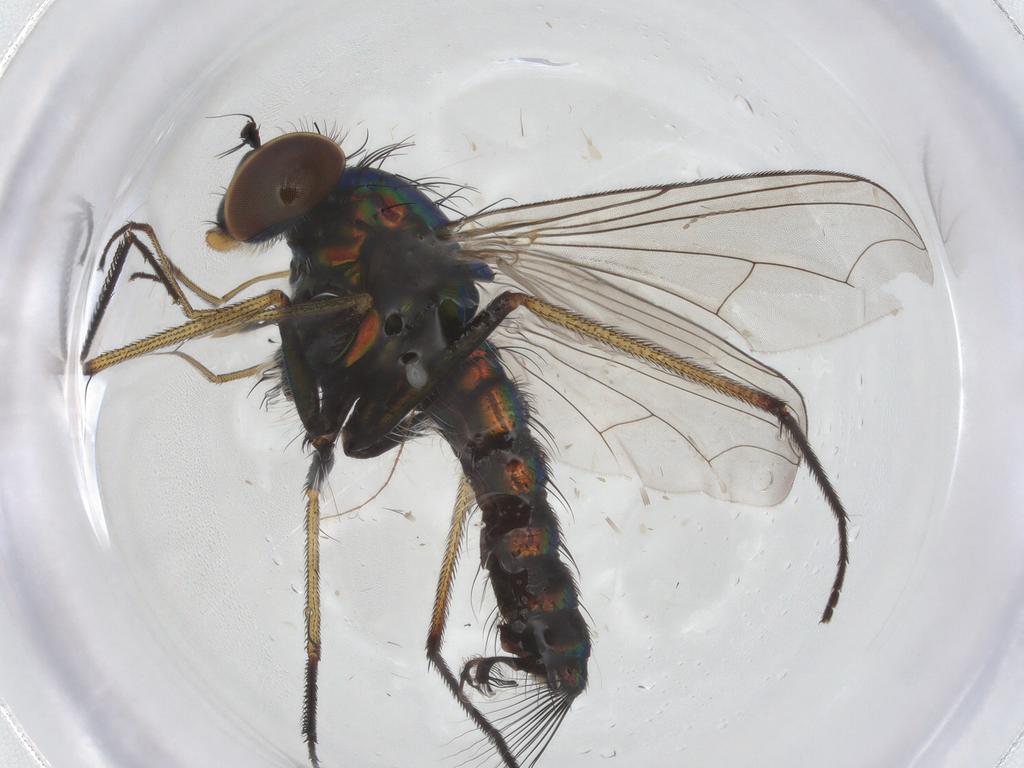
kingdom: Animalia
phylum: Arthropoda
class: Insecta
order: Diptera
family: Dolichopodidae
